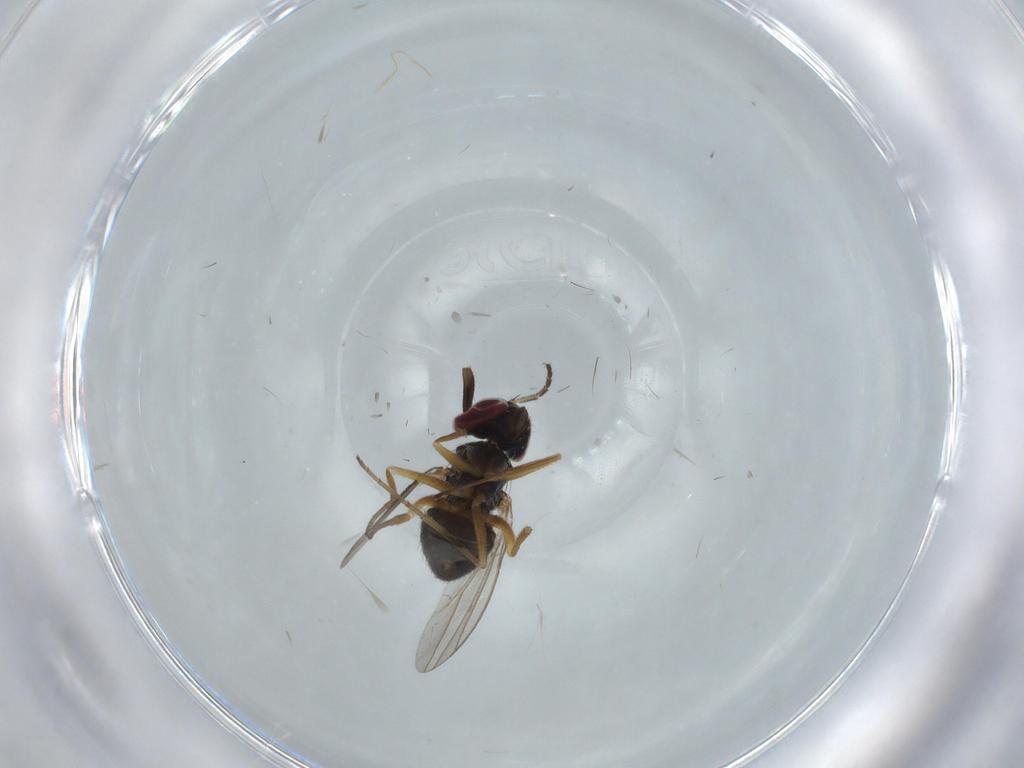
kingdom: Animalia
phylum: Arthropoda
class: Insecta
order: Diptera
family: Milichiidae
